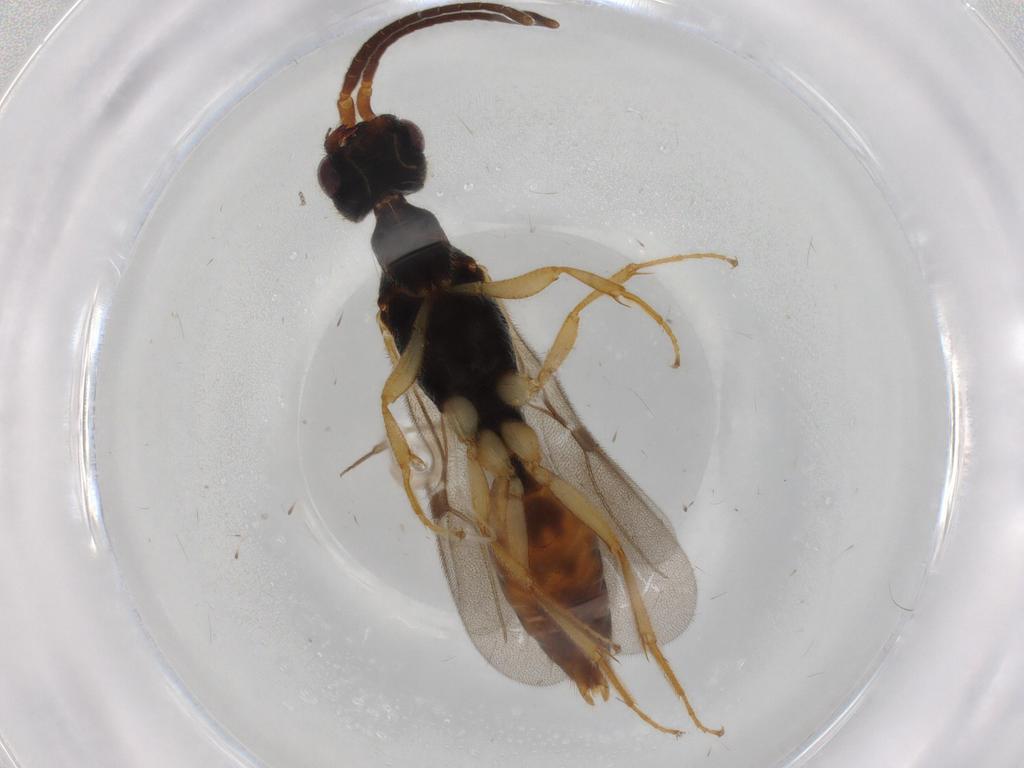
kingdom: Animalia
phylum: Arthropoda
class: Insecta
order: Hymenoptera
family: Bethylidae
